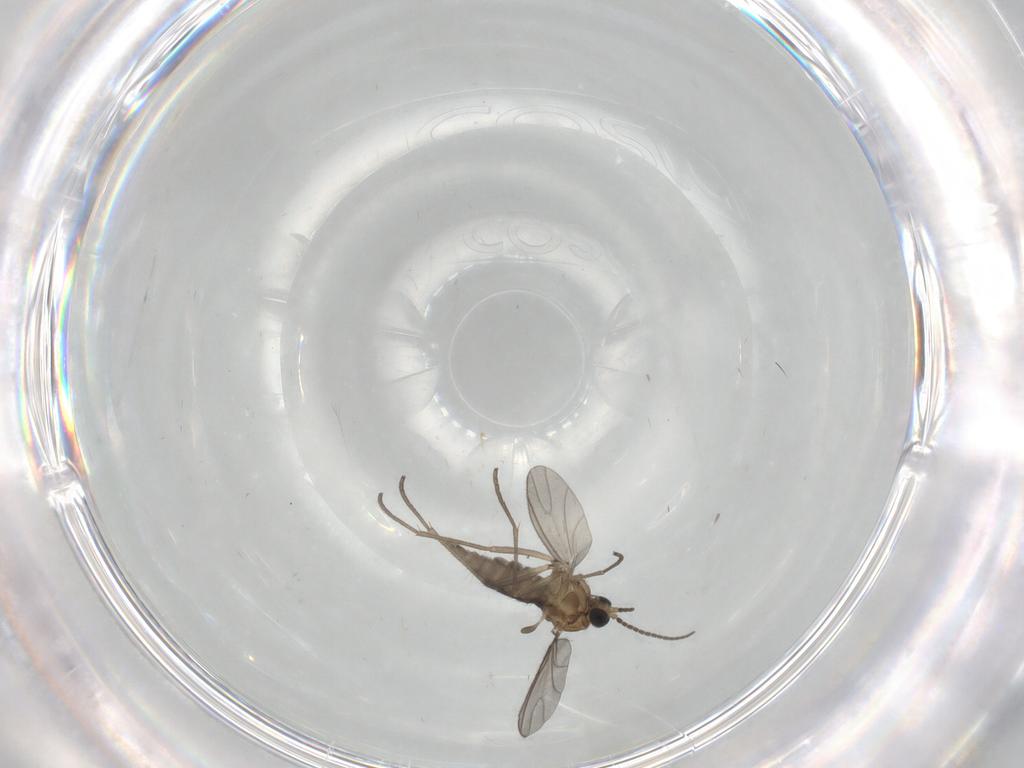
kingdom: Animalia
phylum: Arthropoda
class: Insecta
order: Diptera
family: Sciaridae
